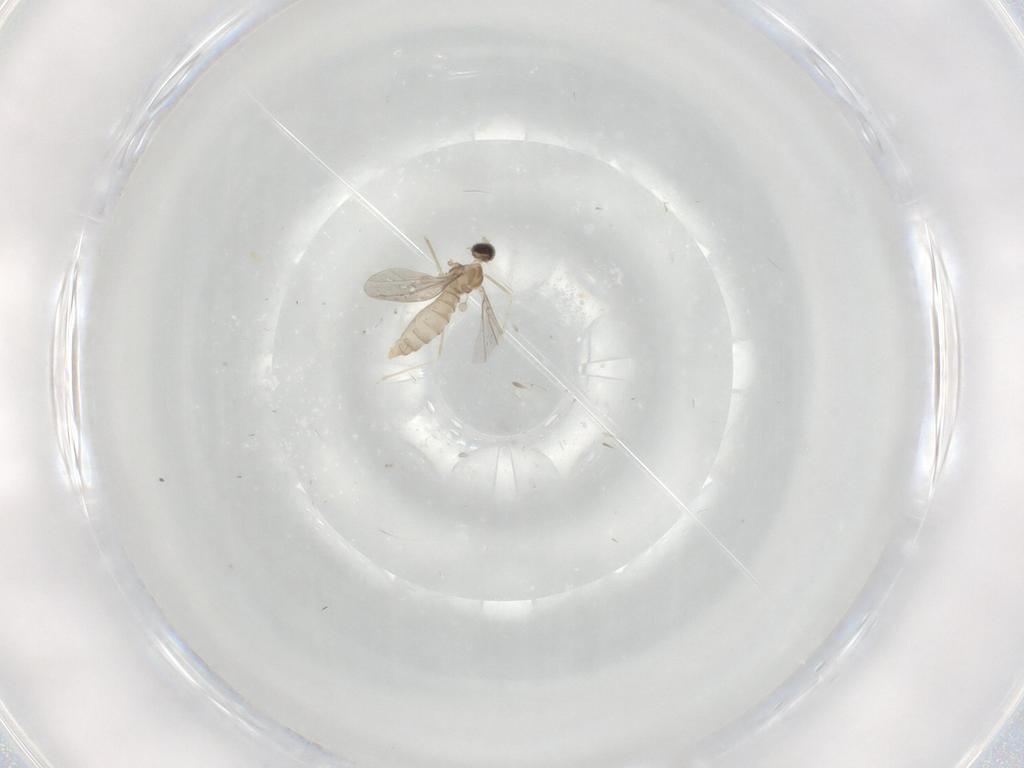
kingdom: Animalia
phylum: Arthropoda
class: Insecta
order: Diptera
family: Cecidomyiidae
